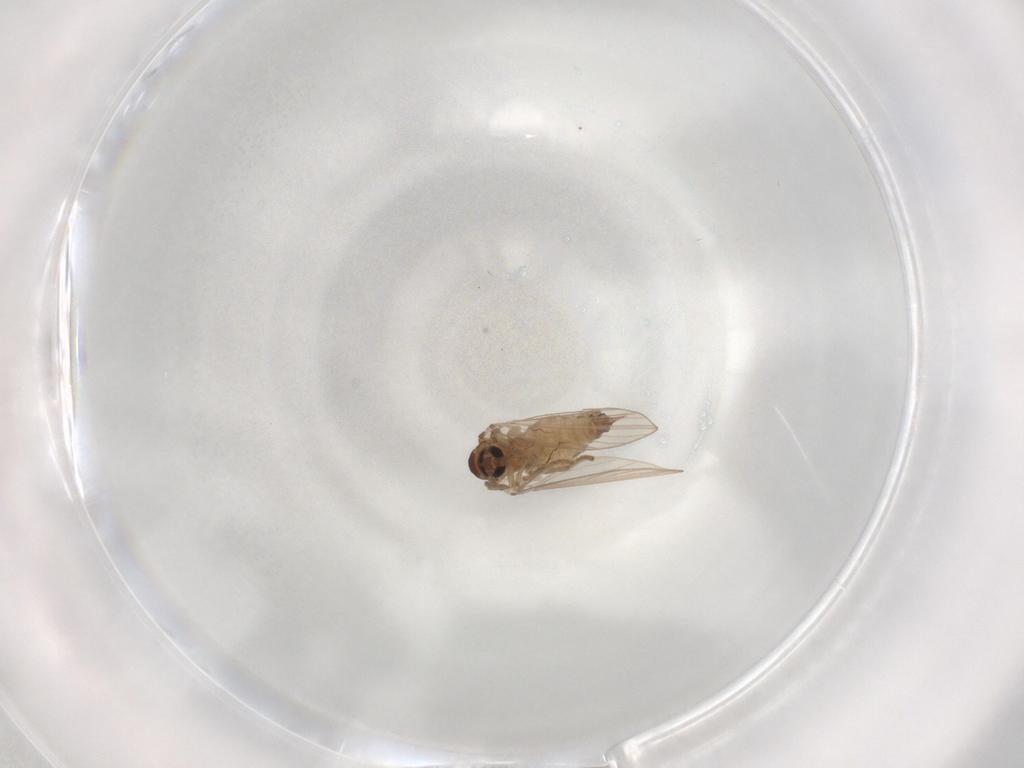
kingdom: Animalia
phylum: Arthropoda
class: Insecta
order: Diptera
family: Psychodidae
